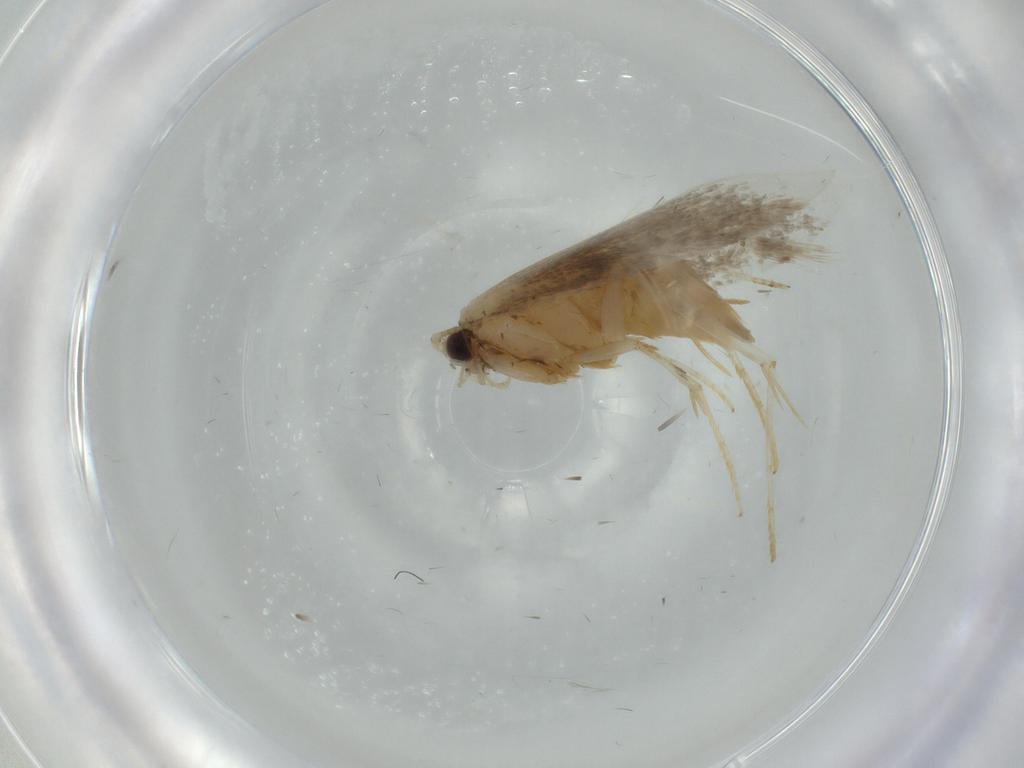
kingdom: Animalia
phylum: Arthropoda
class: Insecta
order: Lepidoptera
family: Tineidae
